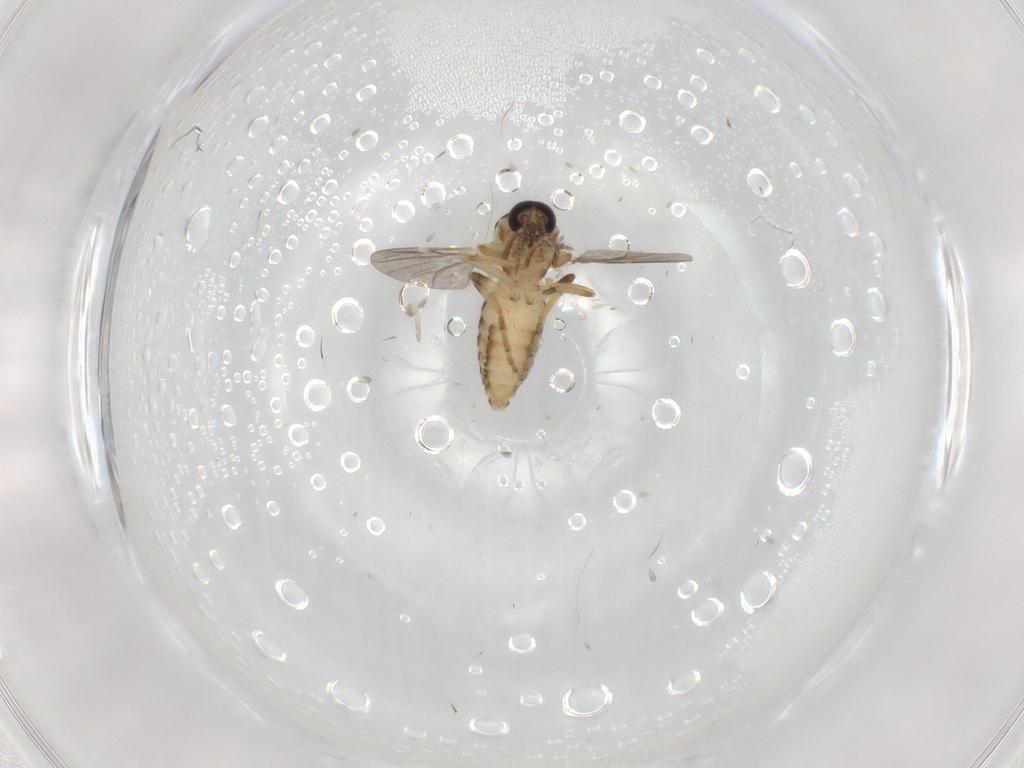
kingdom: Animalia
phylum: Arthropoda
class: Insecta
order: Diptera
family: Ceratopogonidae
